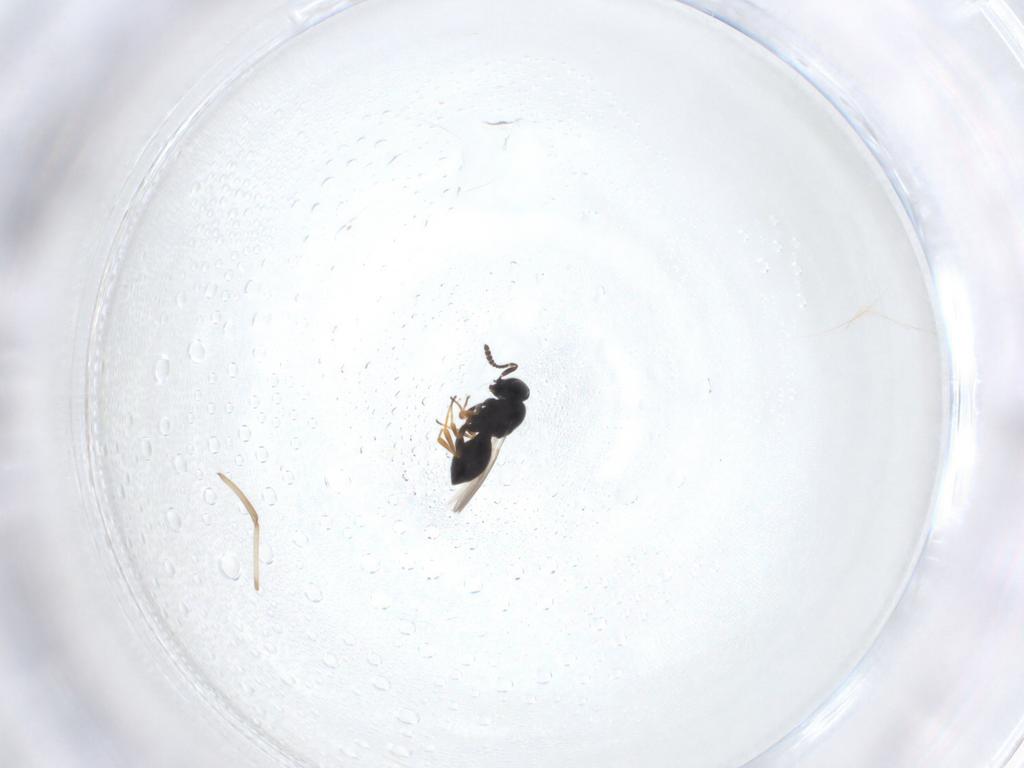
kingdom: Animalia
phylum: Arthropoda
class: Insecta
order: Hymenoptera
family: Scelionidae
